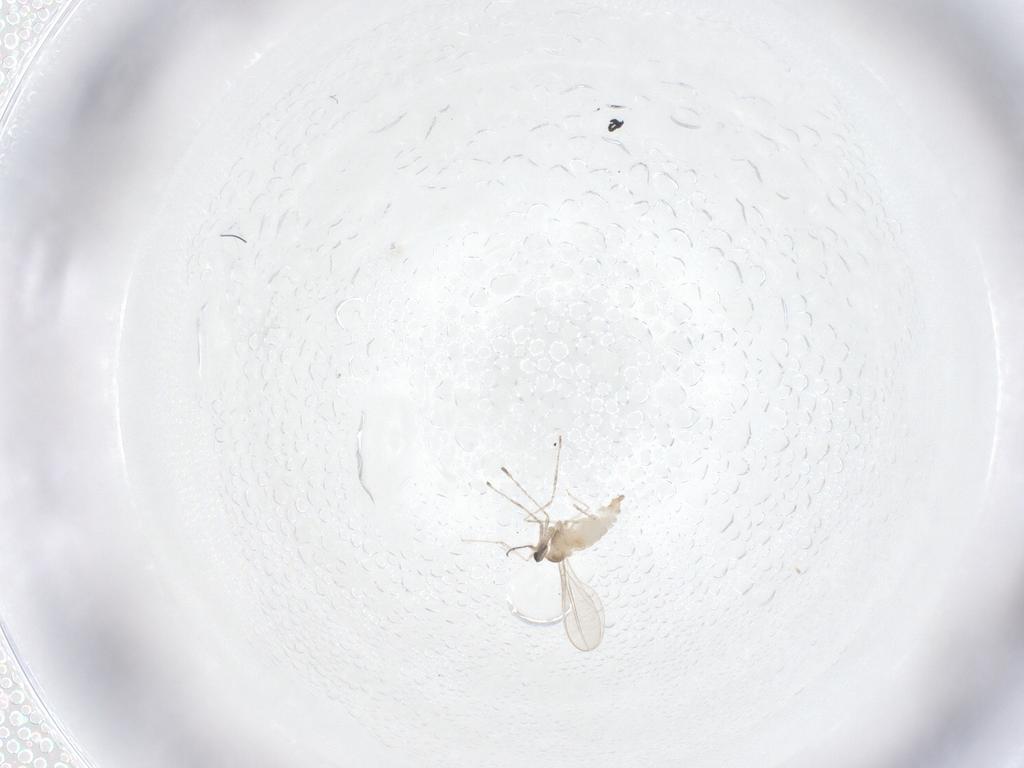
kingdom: Animalia
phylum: Arthropoda
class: Insecta
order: Diptera
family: Cecidomyiidae
